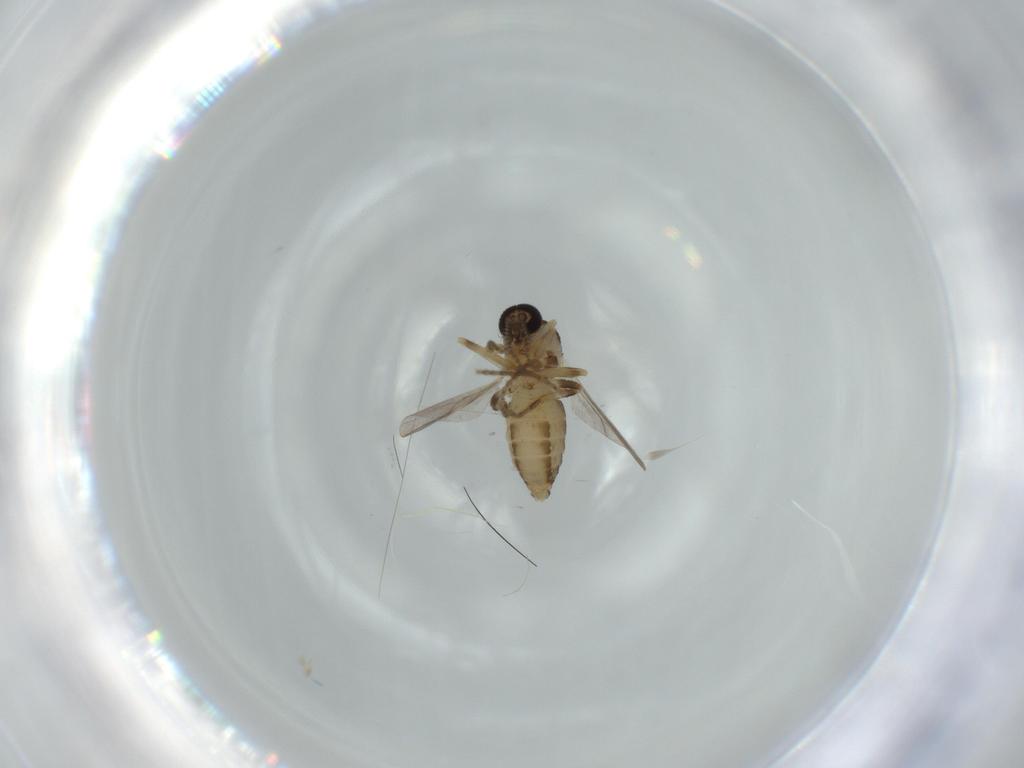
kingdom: Animalia
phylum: Arthropoda
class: Insecta
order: Diptera
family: Ceratopogonidae
